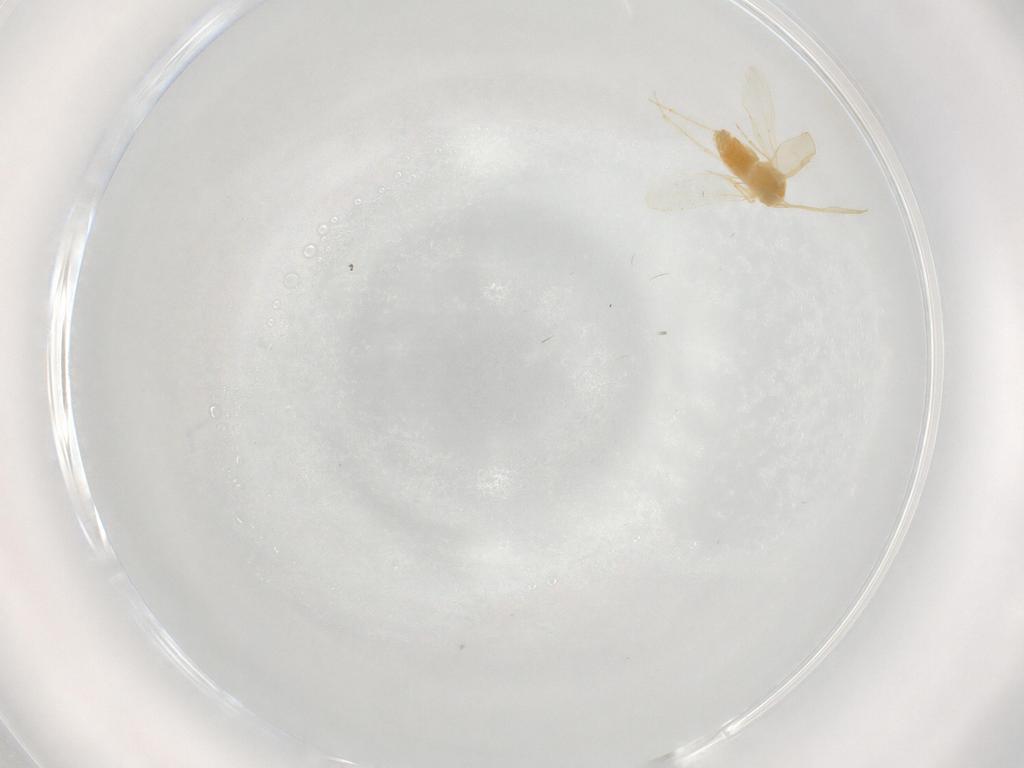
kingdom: Animalia
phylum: Arthropoda
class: Insecta
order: Hemiptera
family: Aleyrodidae
